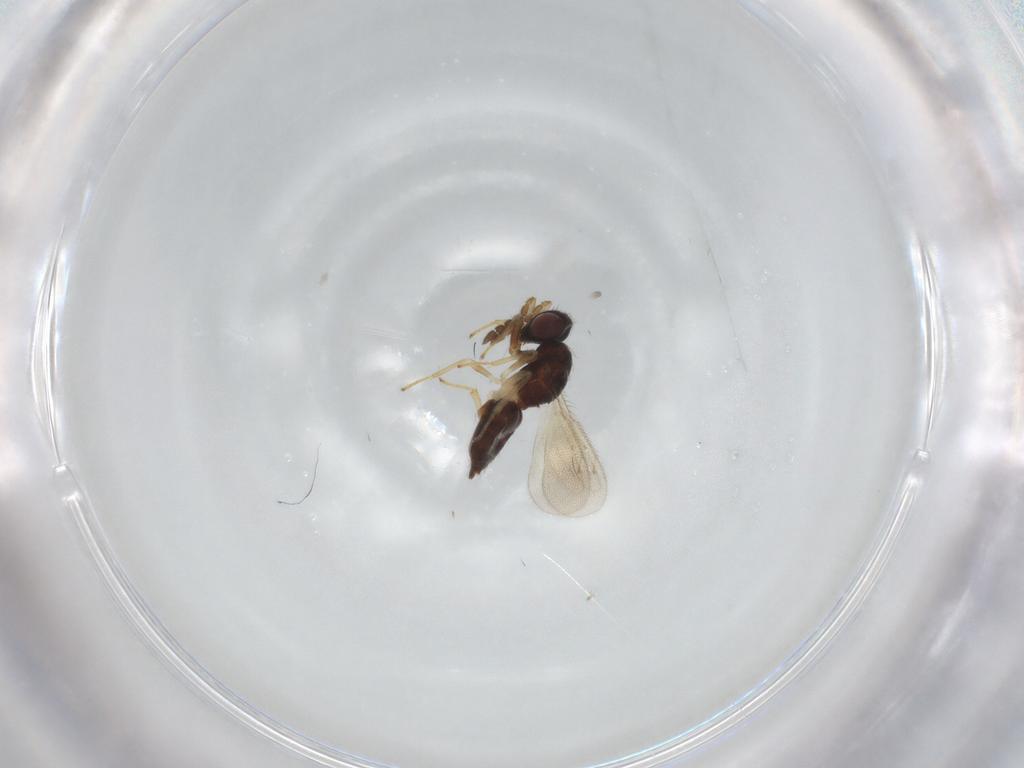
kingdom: Animalia
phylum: Arthropoda
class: Insecta
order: Hymenoptera
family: Eulophidae
